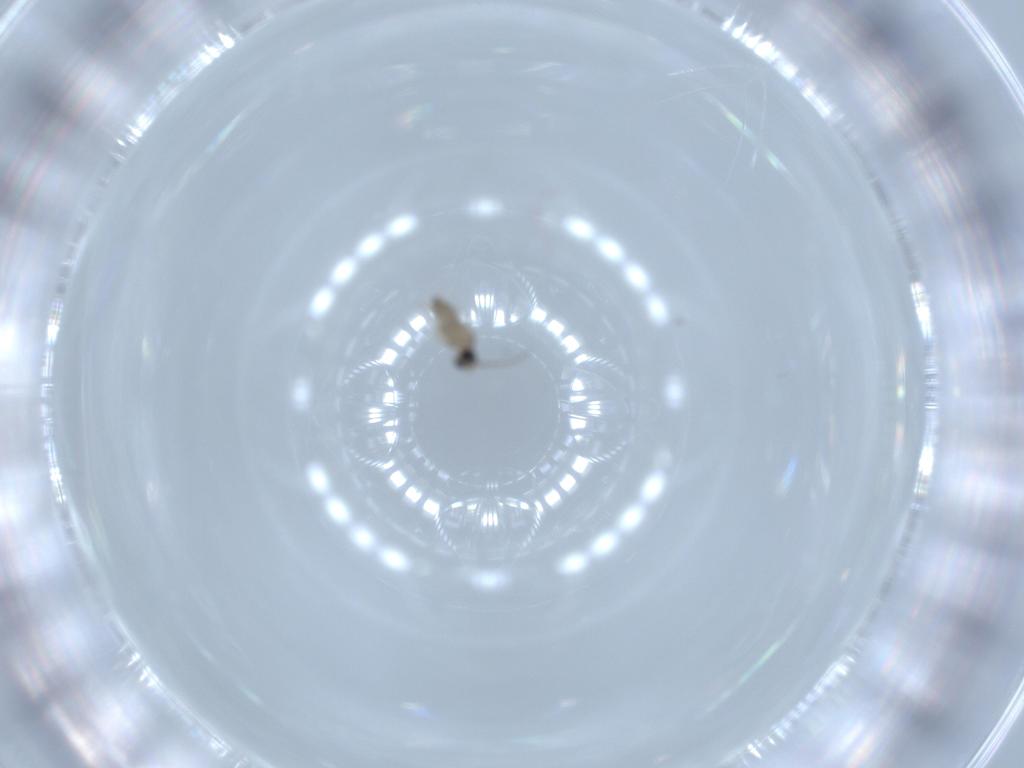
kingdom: Animalia
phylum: Arthropoda
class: Insecta
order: Diptera
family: Cecidomyiidae
